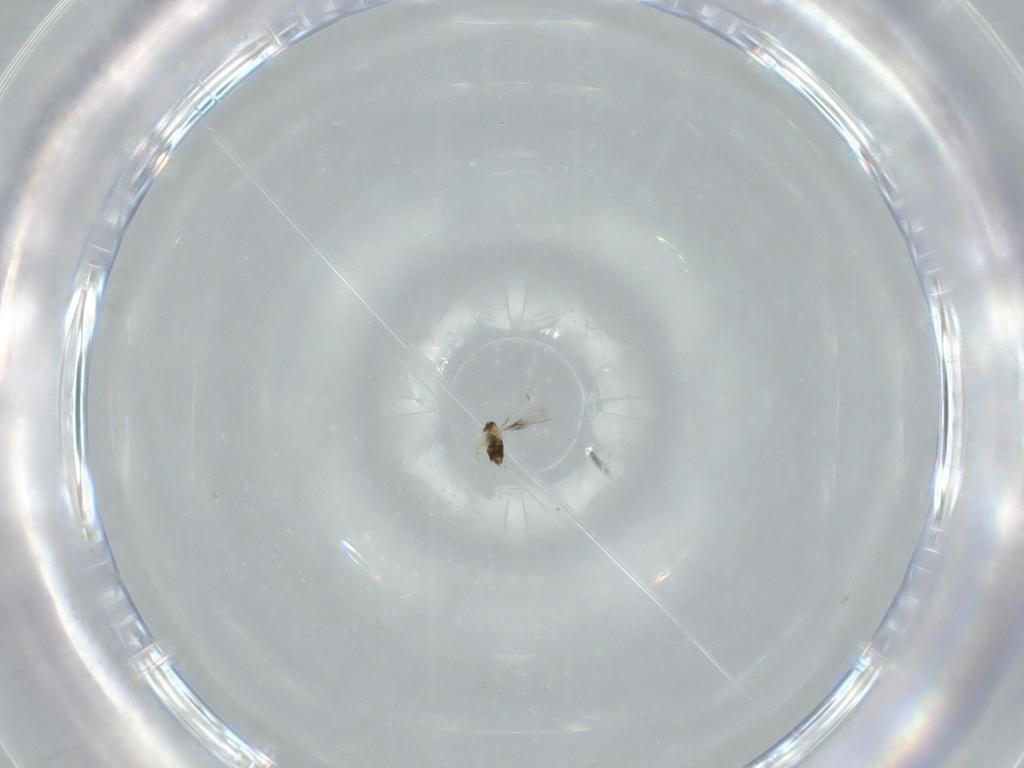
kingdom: Animalia
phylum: Arthropoda
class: Insecta
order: Hymenoptera
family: Aphelinidae
